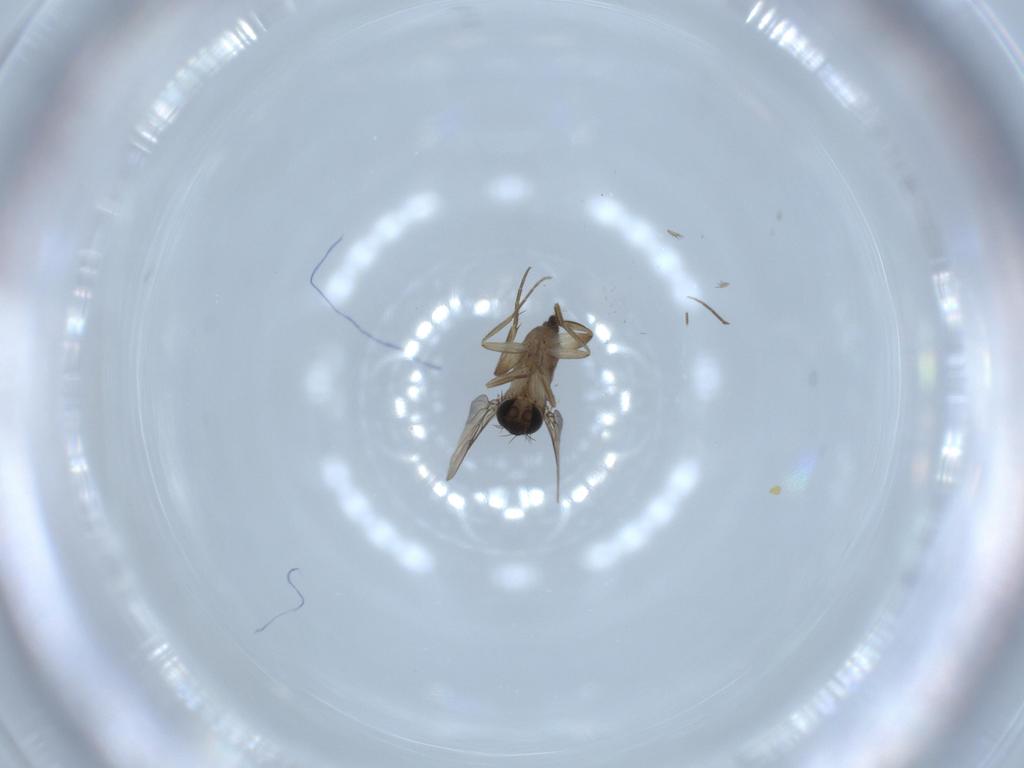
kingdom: Animalia
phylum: Arthropoda
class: Insecta
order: Diptera
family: Phoridae
